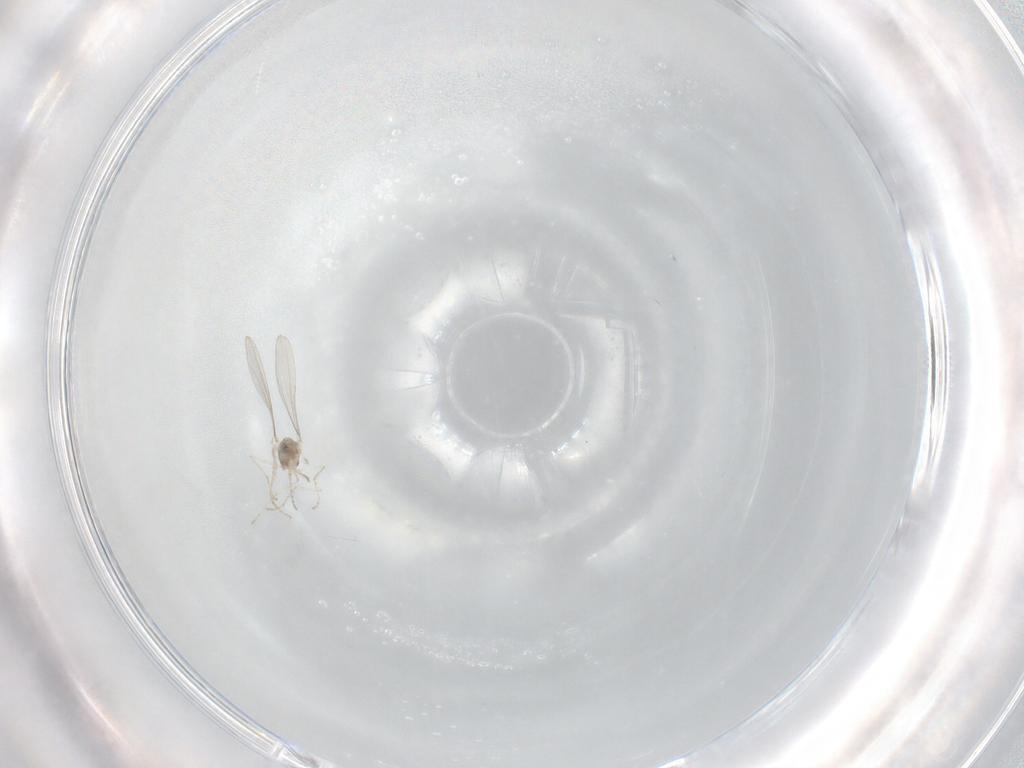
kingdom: Animalia
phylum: Arthropoda
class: Insecta
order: Diptera
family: Cecidomyiidae
